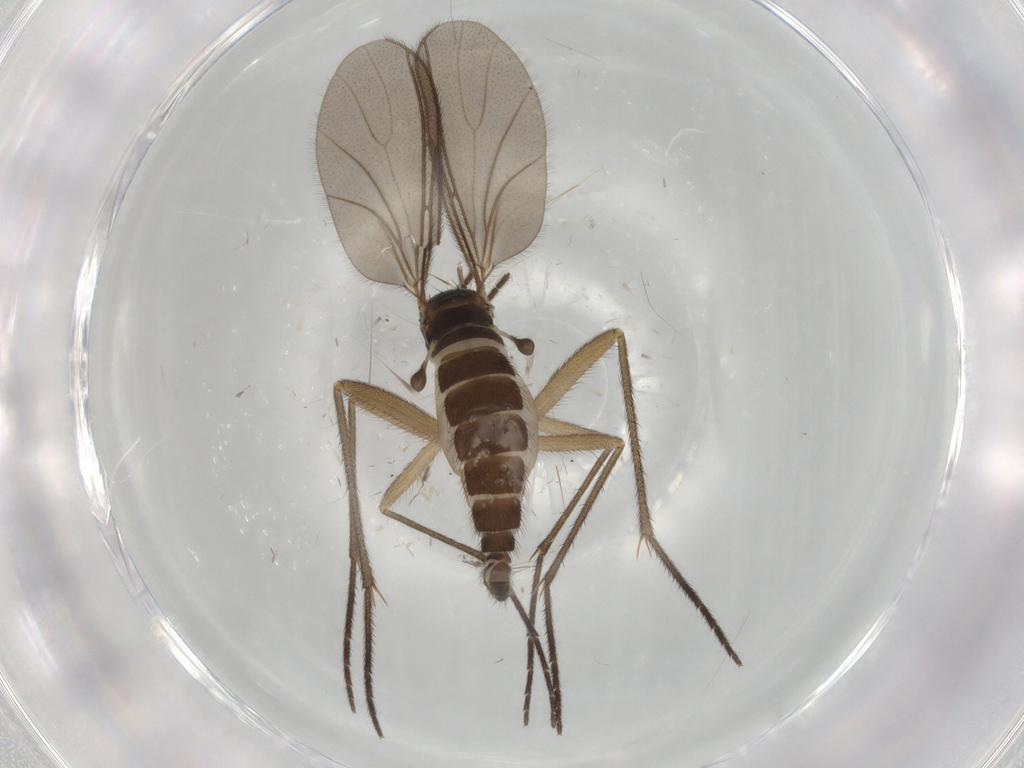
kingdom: Animalia
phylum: Arthropoda
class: Insecta
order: Diptera
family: Sciaridae
